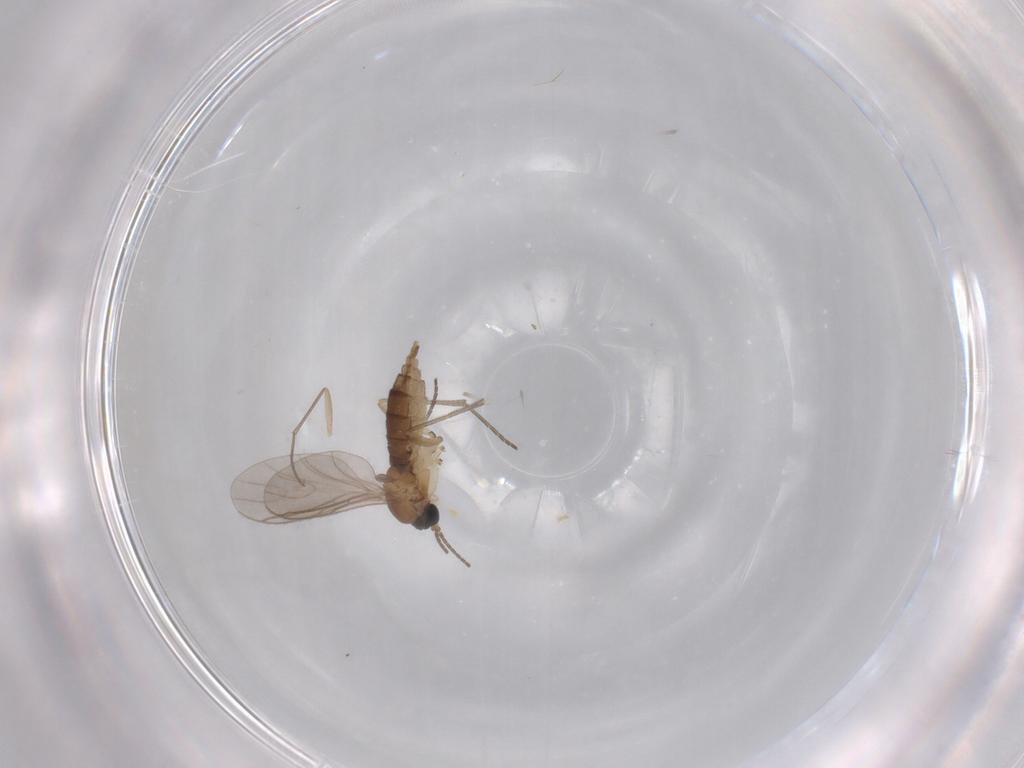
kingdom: Animalia
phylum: Arthropoda
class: Insecta
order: Diptera
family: Sciaridae
